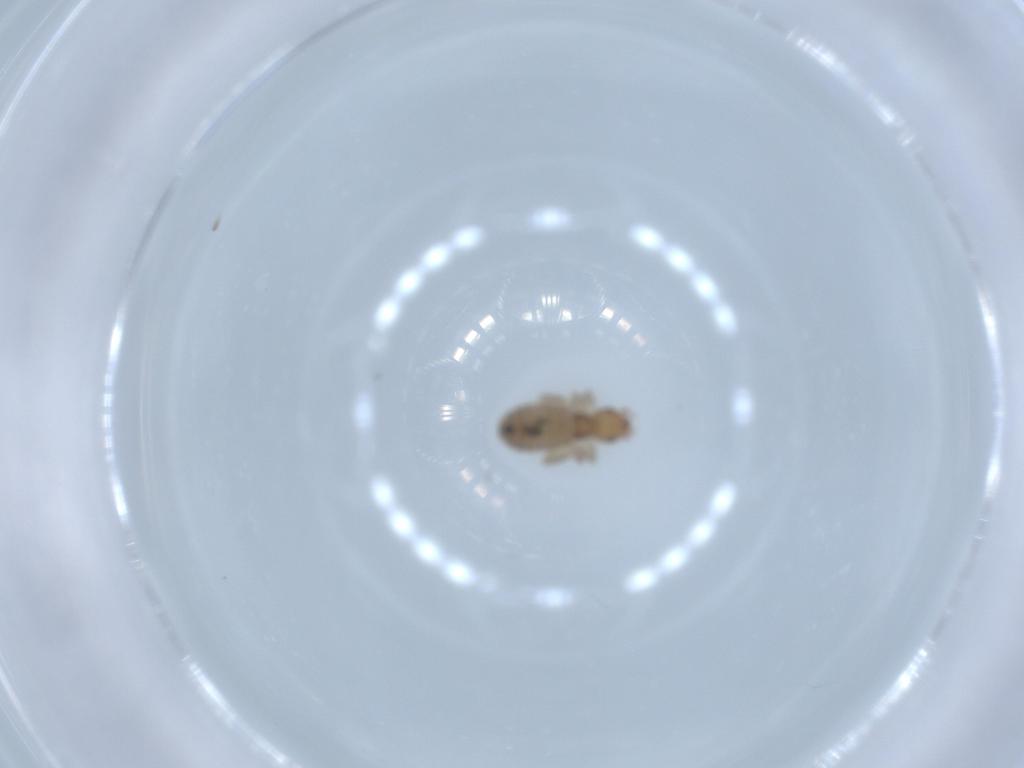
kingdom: Animalia
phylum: Arthropoda
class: Insecta
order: Psocodea
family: Liposcelididae
